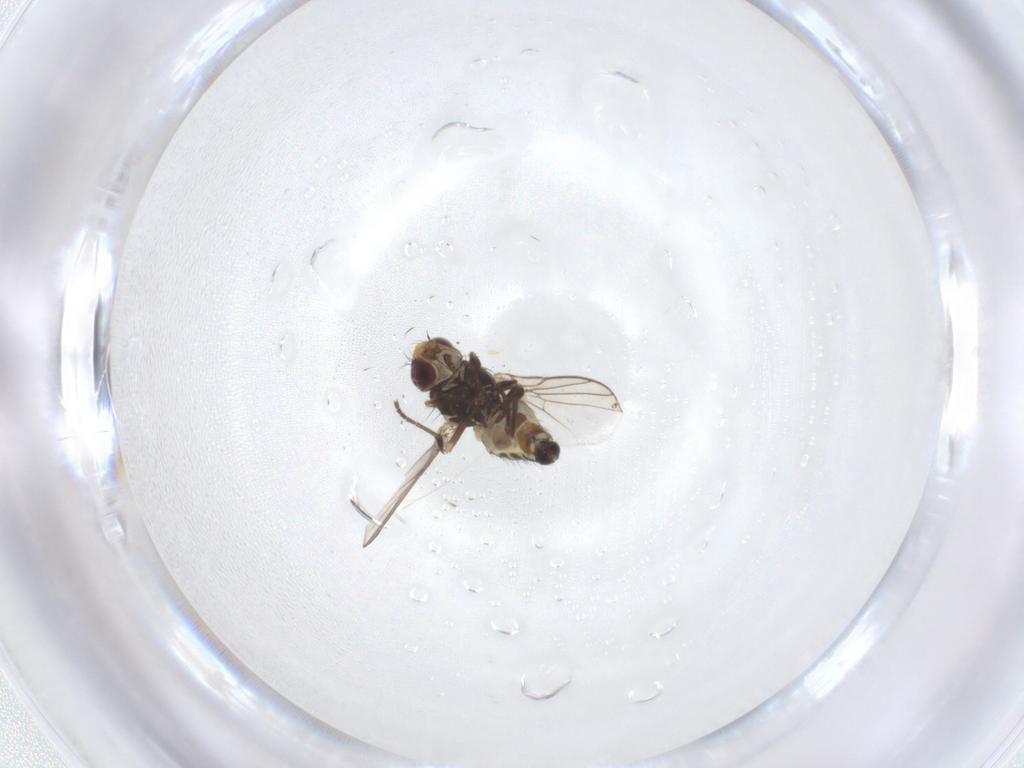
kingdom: Animalia
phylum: Arthropoda
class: Insecta
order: Diptera
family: Agromyzidae
